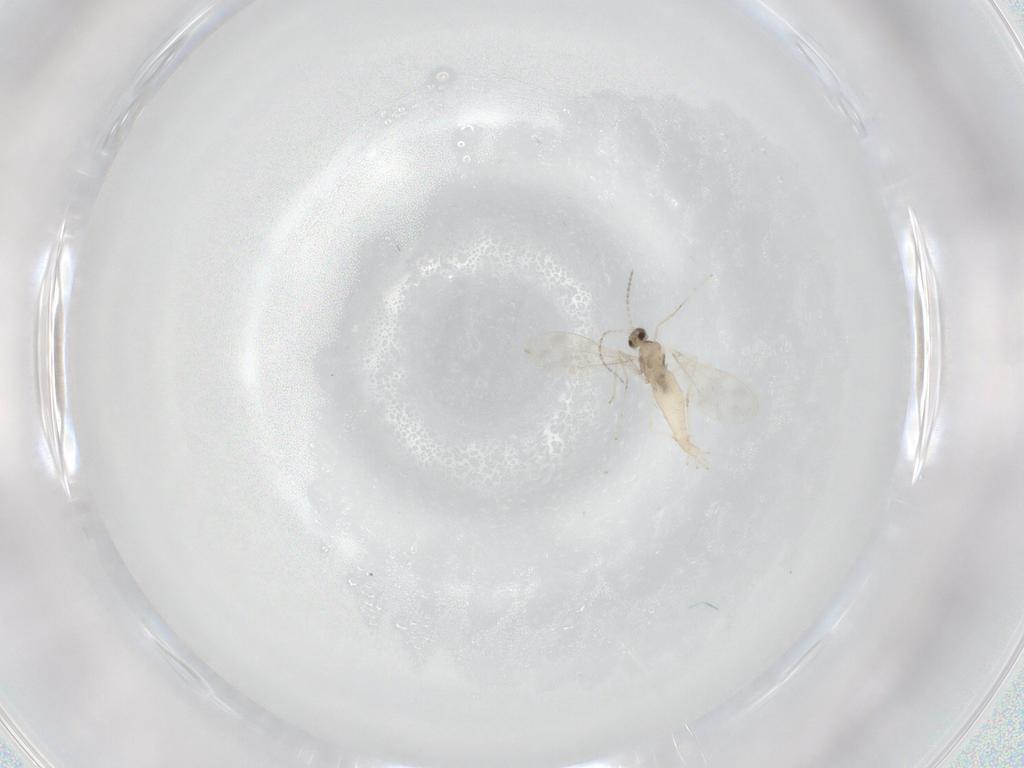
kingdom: Animalia
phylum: Arthropoda
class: Insecta
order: Diptera
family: Cecidomyiidae
